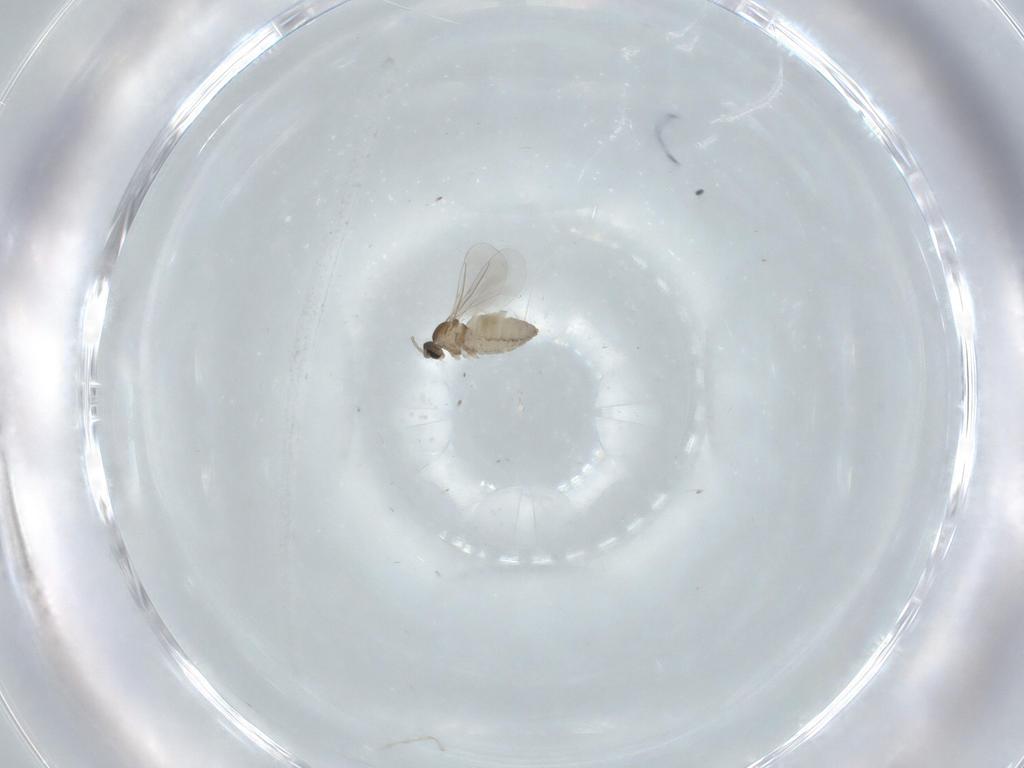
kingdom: Animalia
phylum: Arthropoda
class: Insecta
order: Diptera
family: Cecidomyiidae
